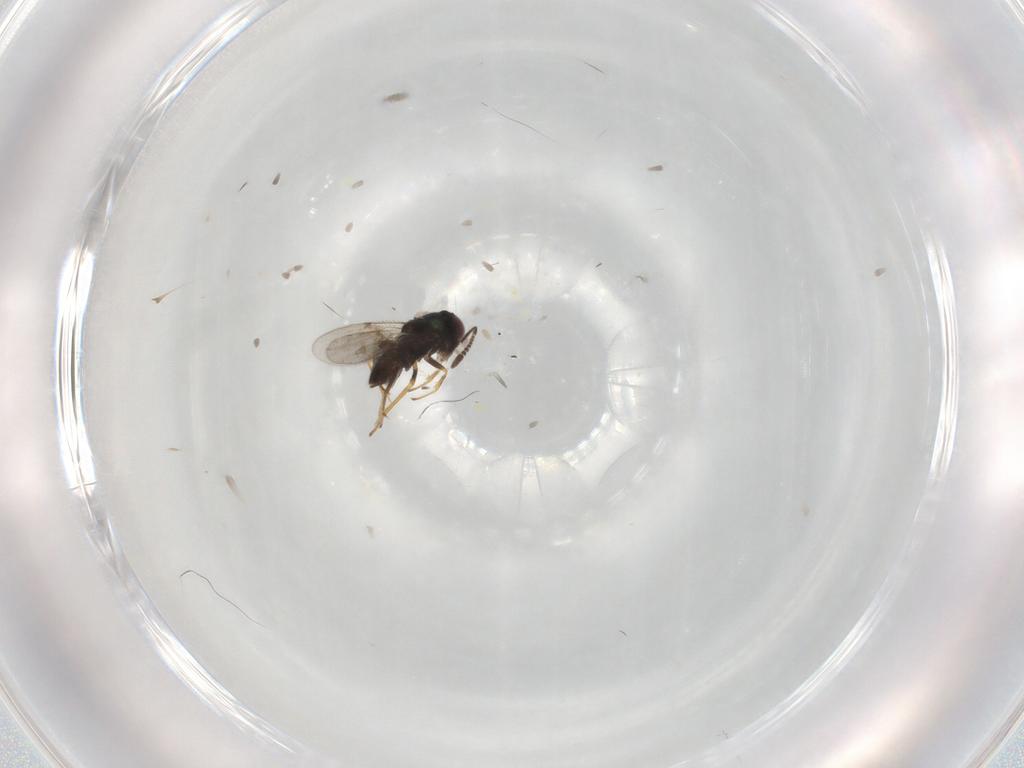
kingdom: Animalia
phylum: Arthropoda
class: Insecta
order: Hymenoptera
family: Encyrtidae
